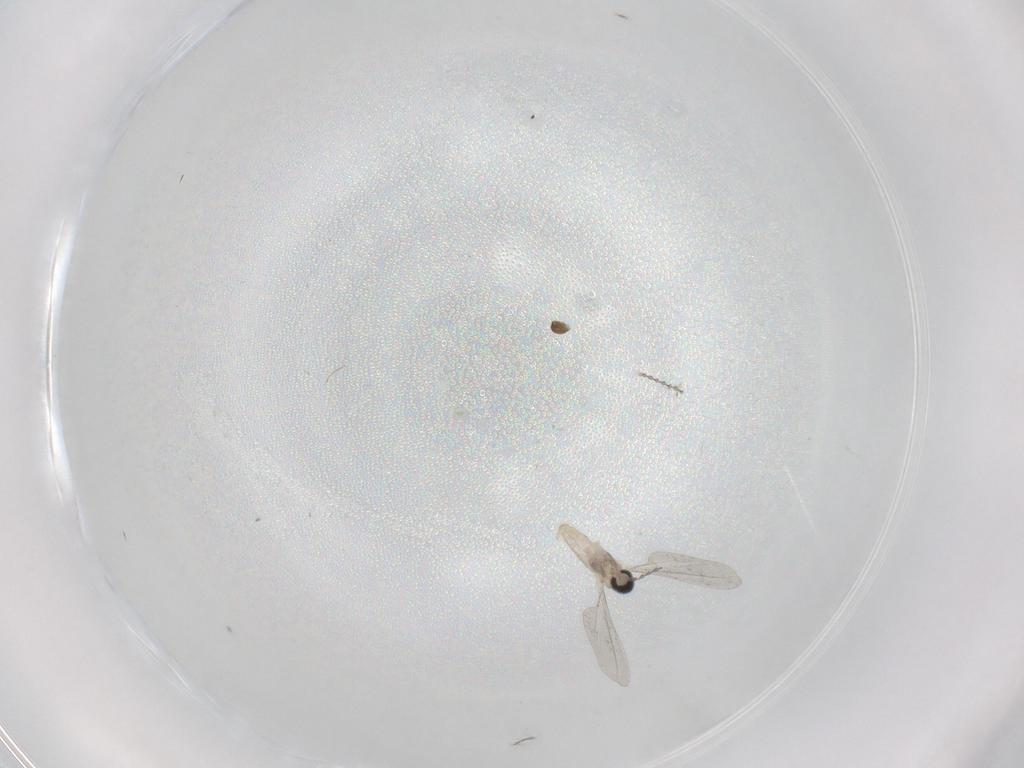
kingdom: Animalia
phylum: Arthropoda
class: Insecta
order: Diptera
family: Cecidomyiidae
